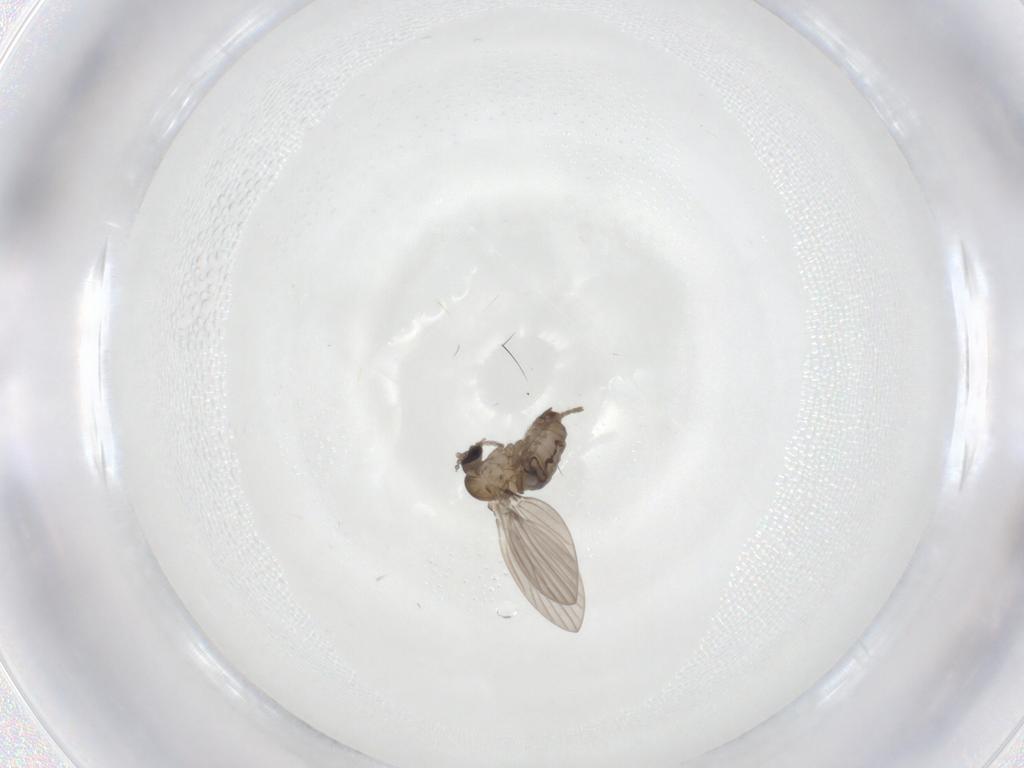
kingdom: Animalia
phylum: Arthropoda
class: Insecta
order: Diptera
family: Psychodidae
